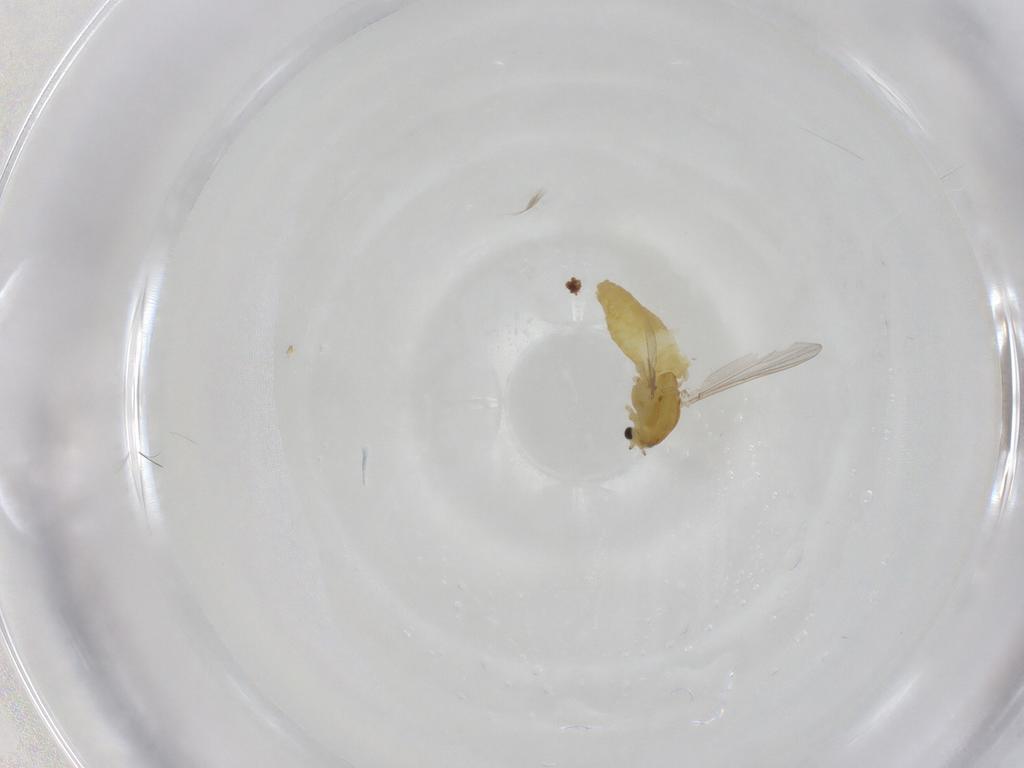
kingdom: Animalia
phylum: Arthropoda
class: Insecta
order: Diptera
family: Chironomidae
